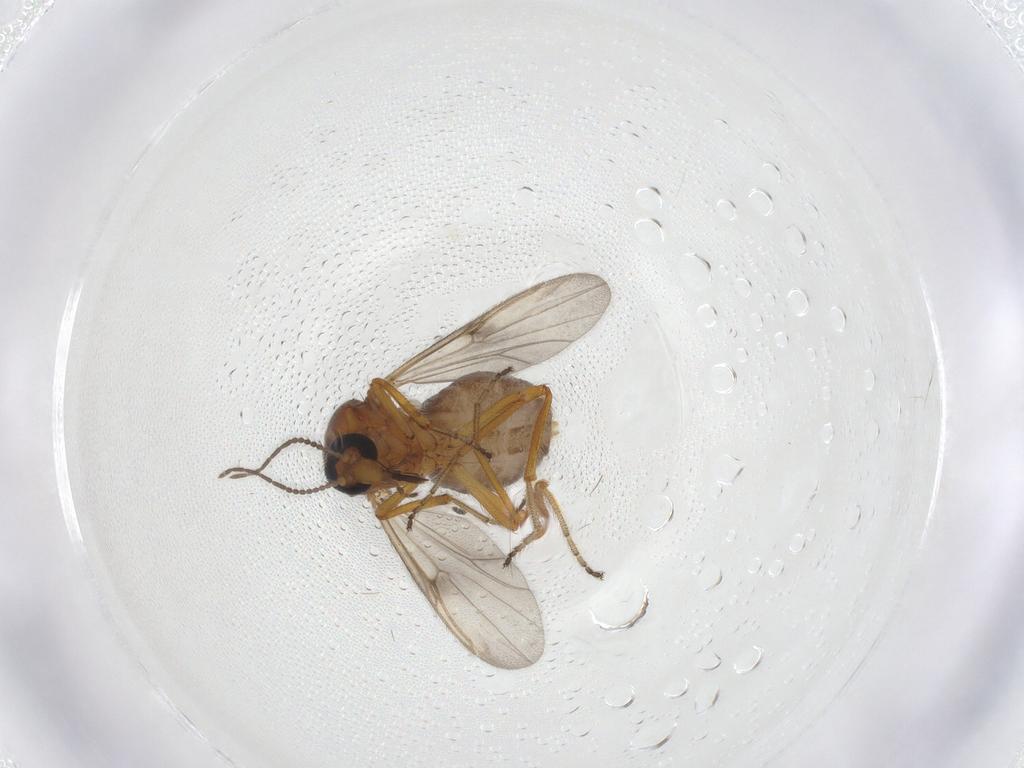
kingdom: Animalia
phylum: Arthropoda
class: Insecta
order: Diptera
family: Ceratopogonidae
